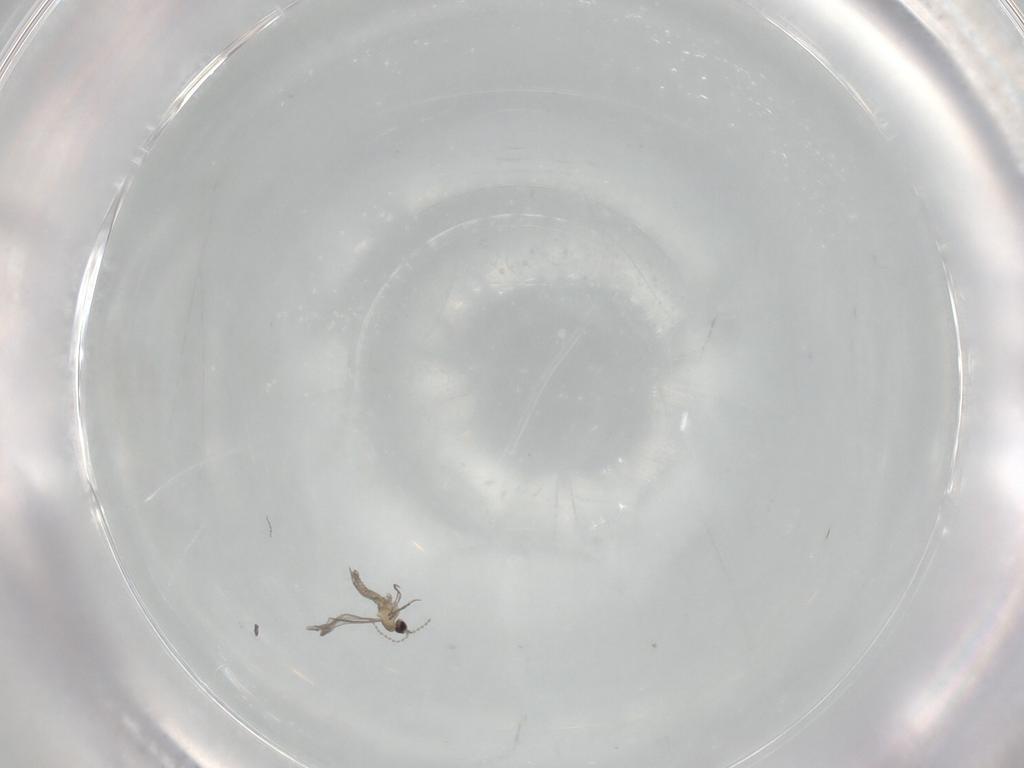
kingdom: Animalia
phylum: Arthropoda
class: Insecta
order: Diptera
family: Cecidomyiidae
